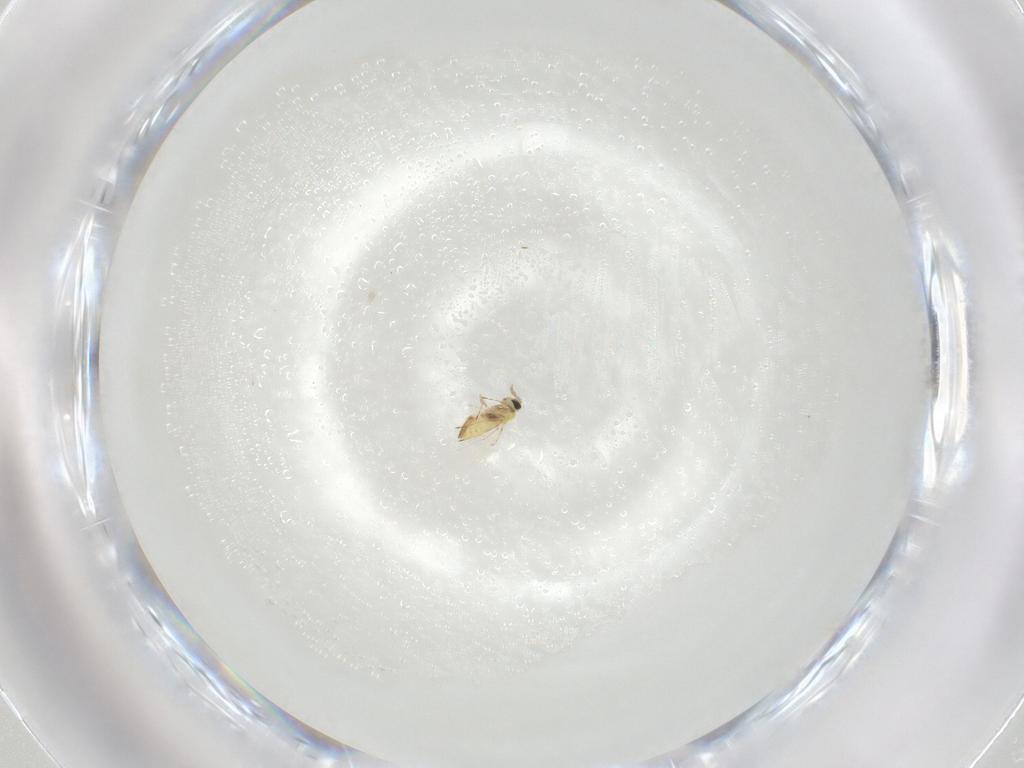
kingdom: Animalia
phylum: Arthropoda
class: Insecta
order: Hymenoptera
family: Trichogrammatidae
